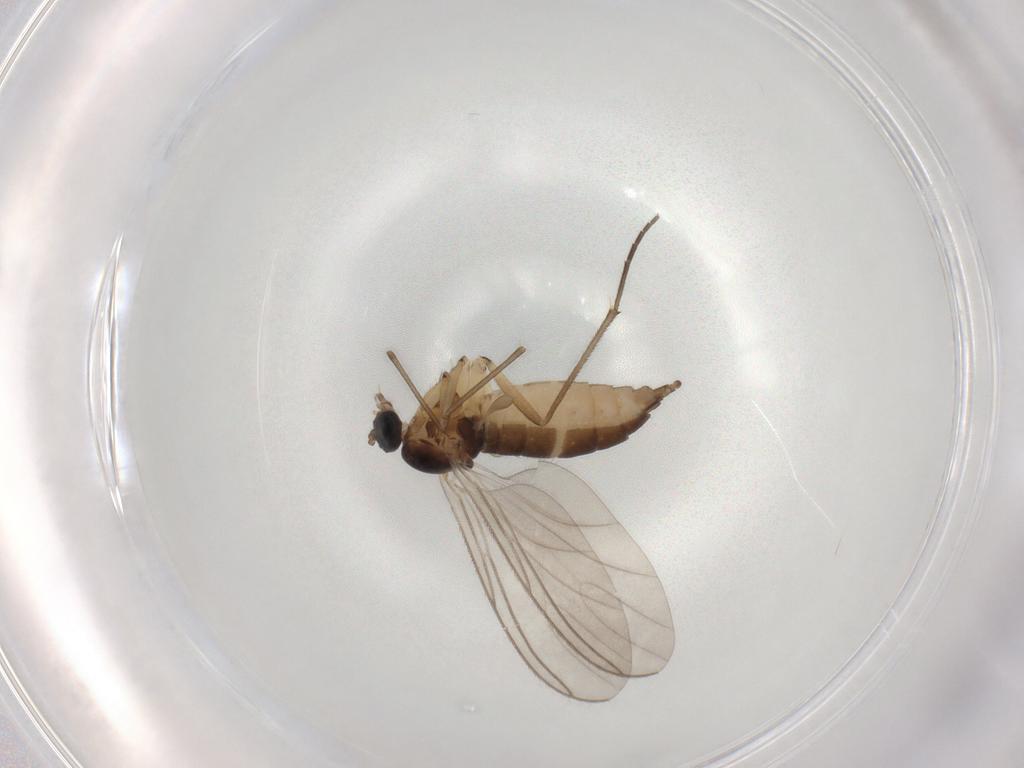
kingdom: Animalia
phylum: Arthropoda
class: Insecta
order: Diptera
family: Sciaridae
